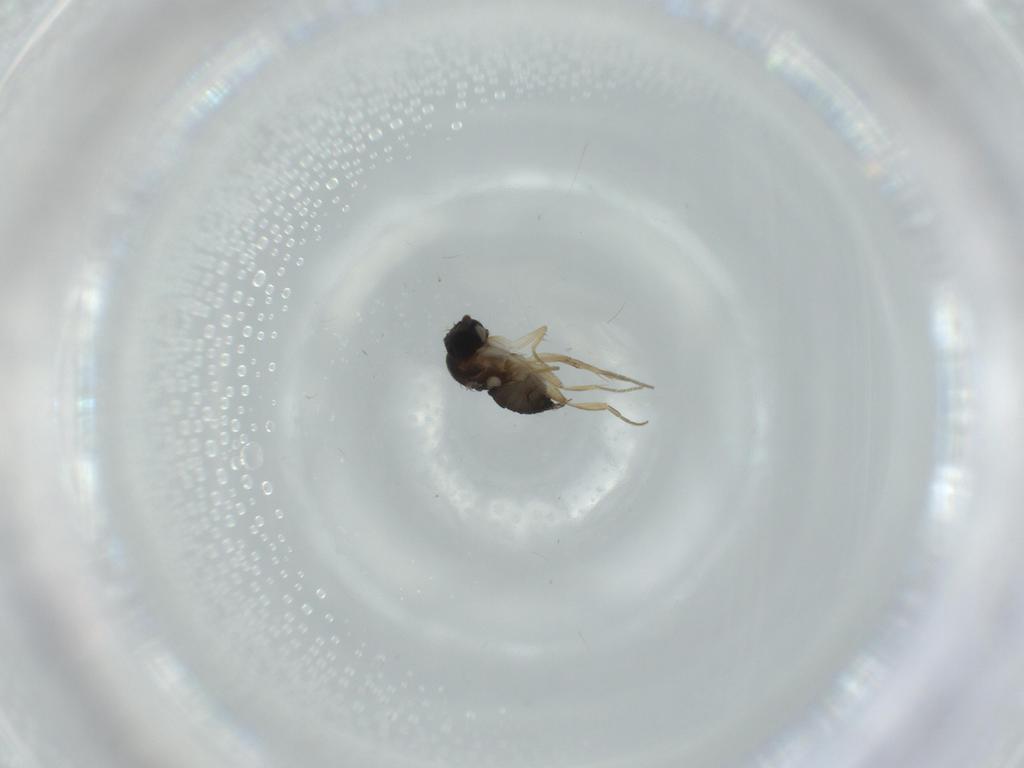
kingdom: Animalia
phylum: Arthropoda
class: Insecta
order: Diptera
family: Phoridae
